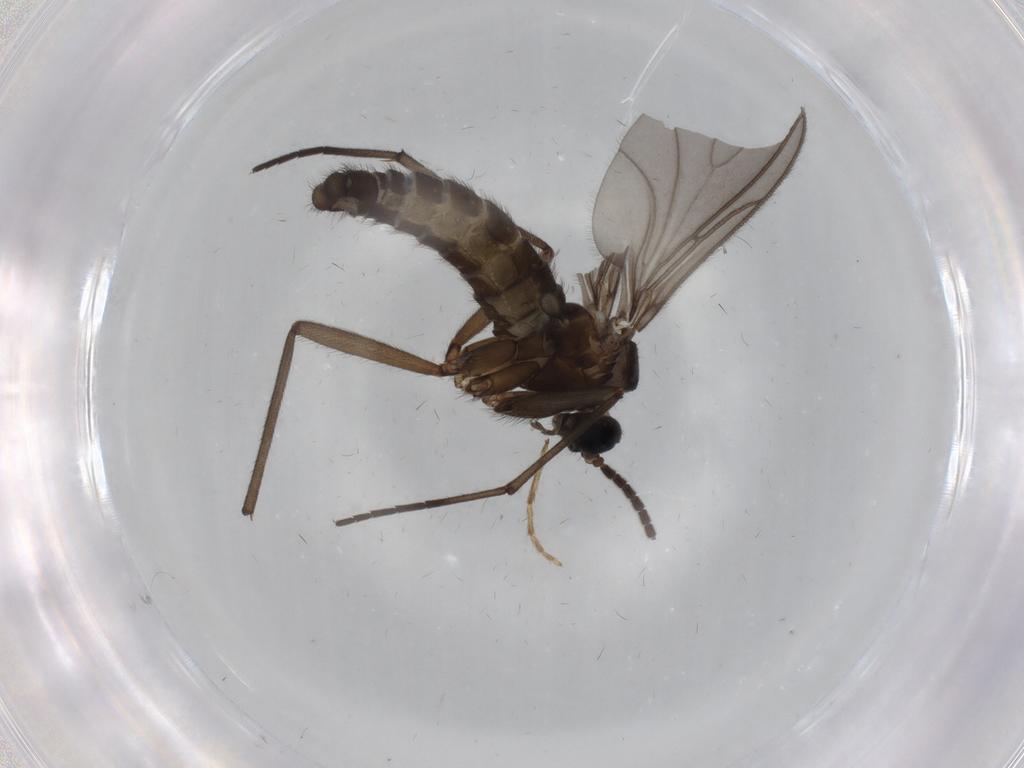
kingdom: Animalia
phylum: Arthropoda
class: Insecta
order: Diptera
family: Sciaridae
